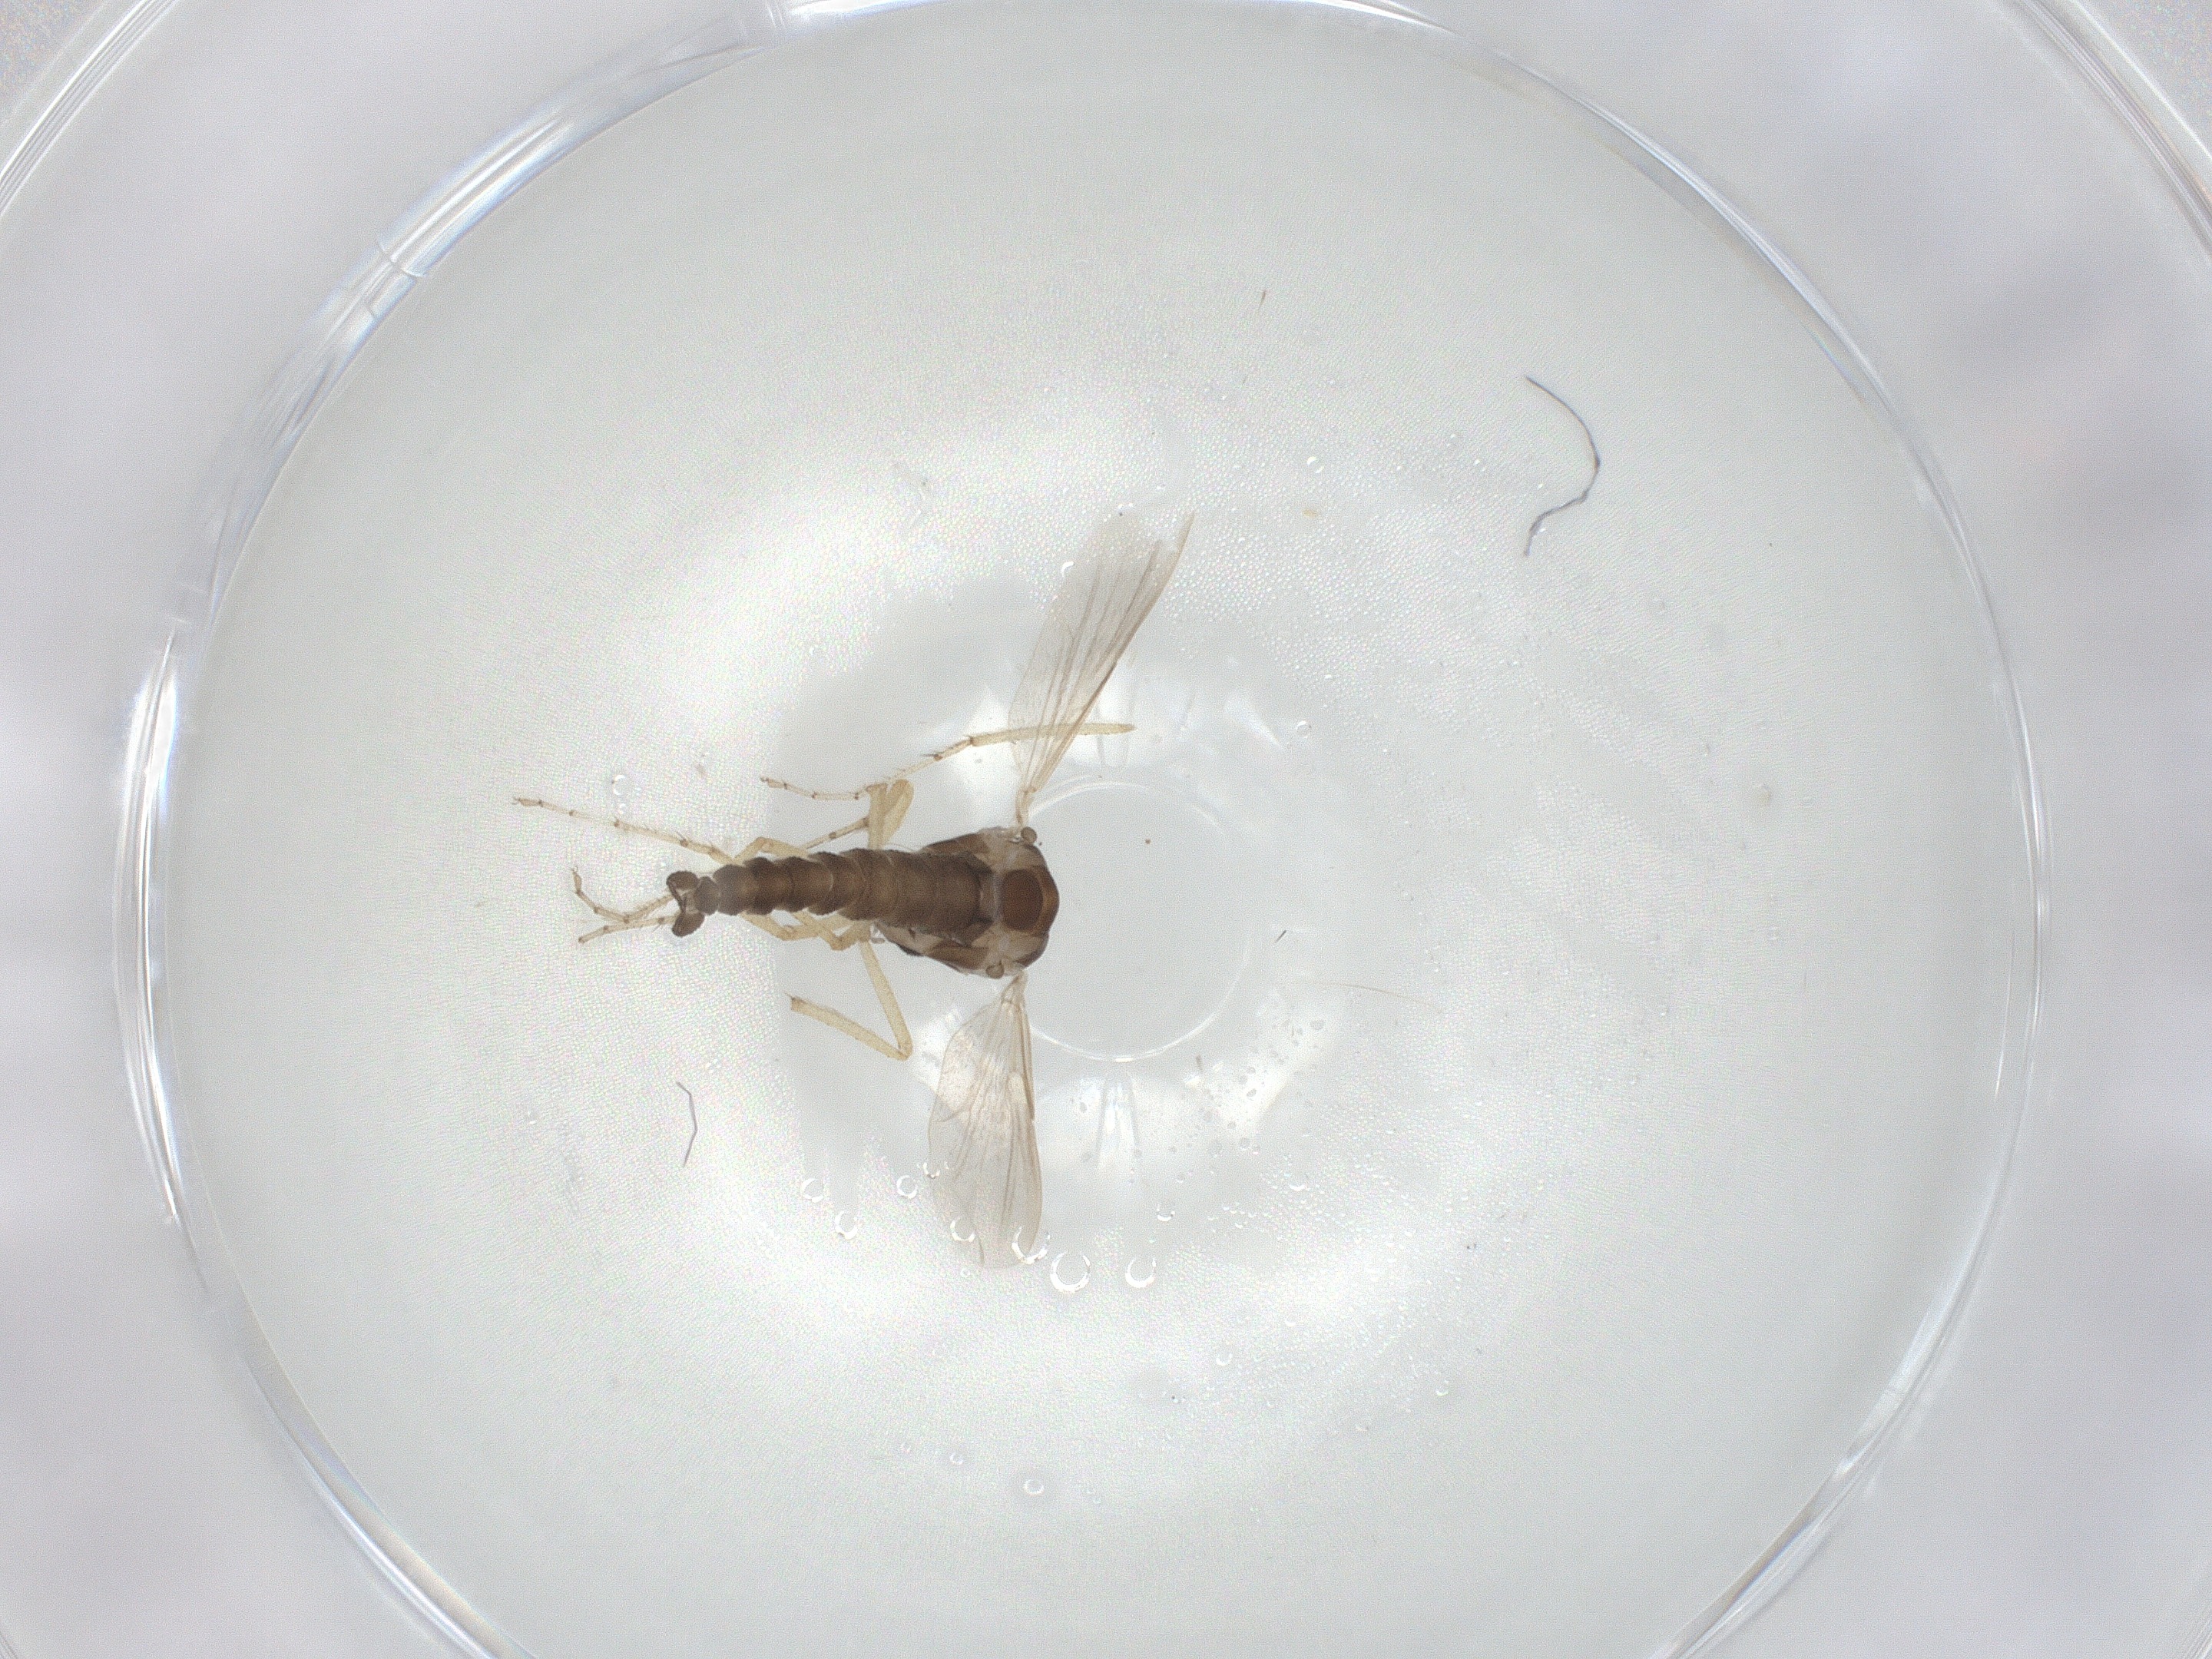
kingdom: Animalia
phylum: Arthropoda
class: Insecta
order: Diptera
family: Ceratopogonidae
